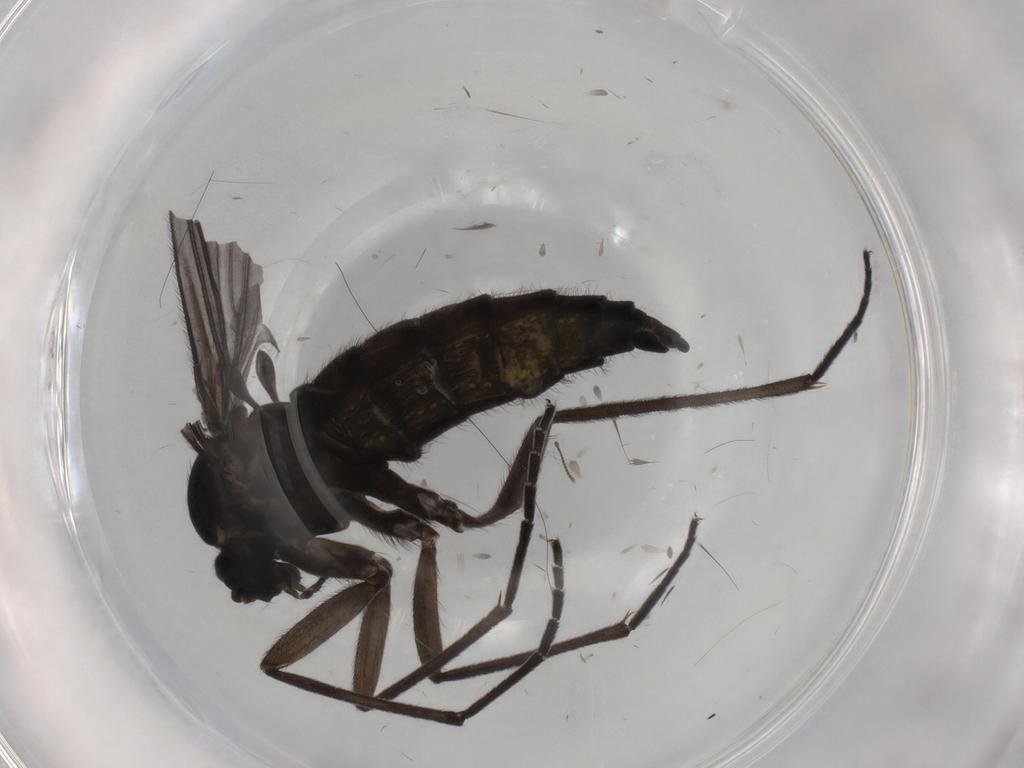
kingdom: Animalia
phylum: Arthropoda
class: Insecta
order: Diptera
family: Sciaridae
